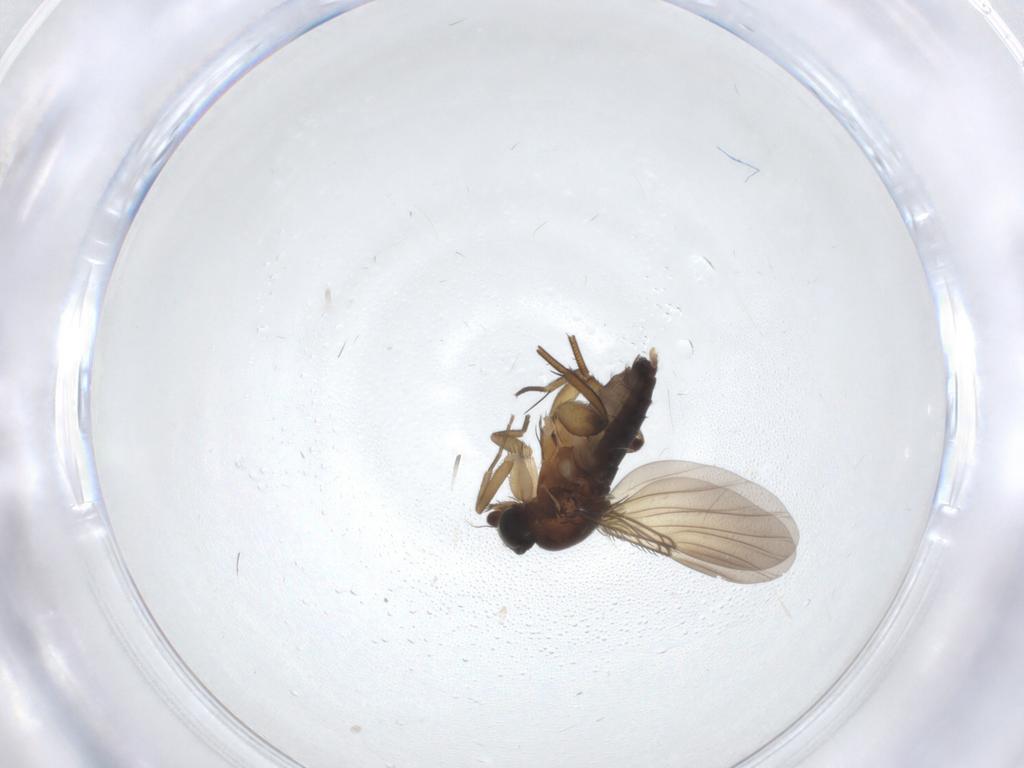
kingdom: Animalia
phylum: Arthropoda
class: Insecta
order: Diptera
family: Phoridae
